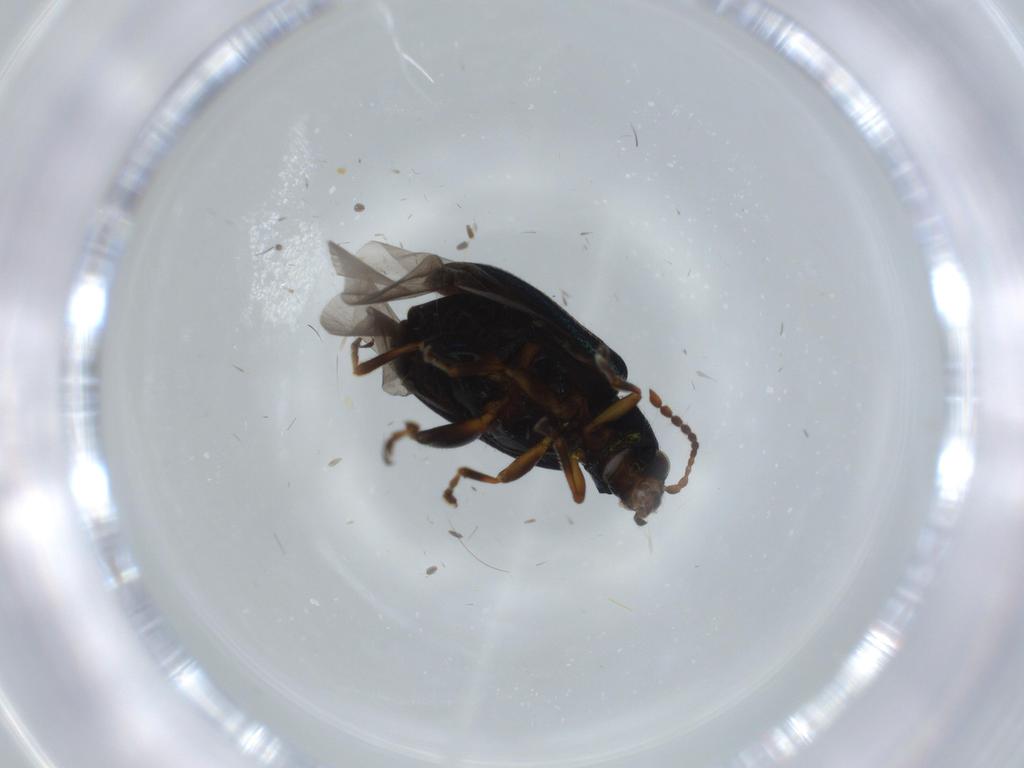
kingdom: Animalia
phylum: Arthropoda
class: Insecta
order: Coleoptera
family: Chrysomelidae
